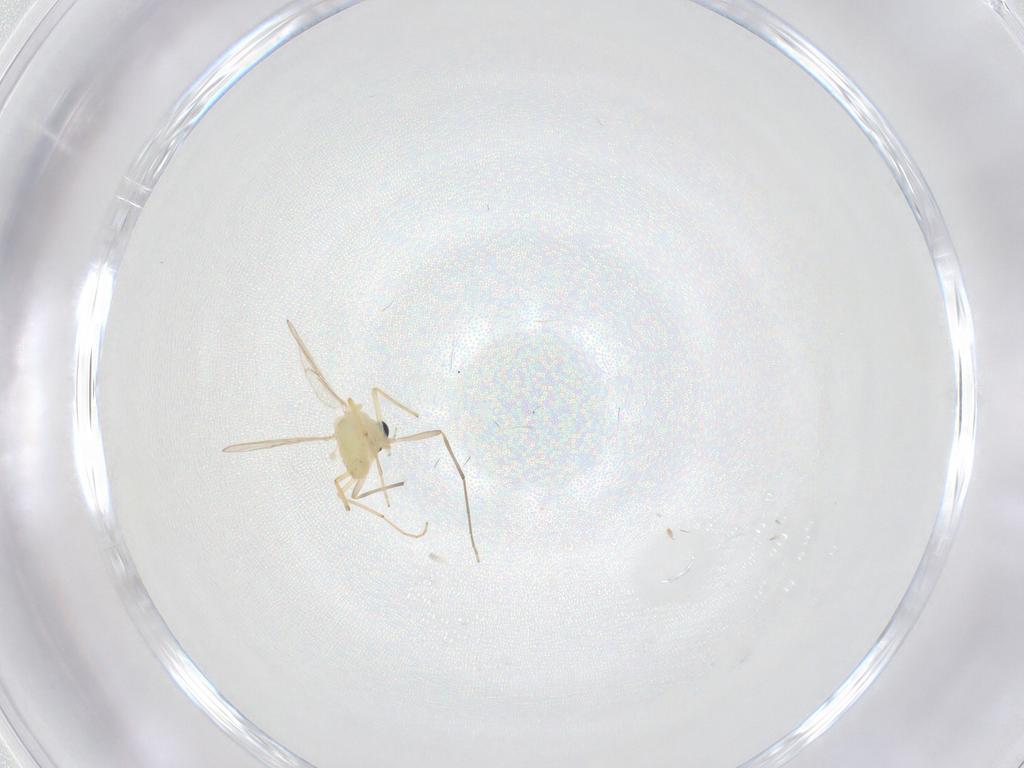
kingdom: Animalia
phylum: Arthropoda
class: Insecta
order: Diptera
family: Chironomidae
